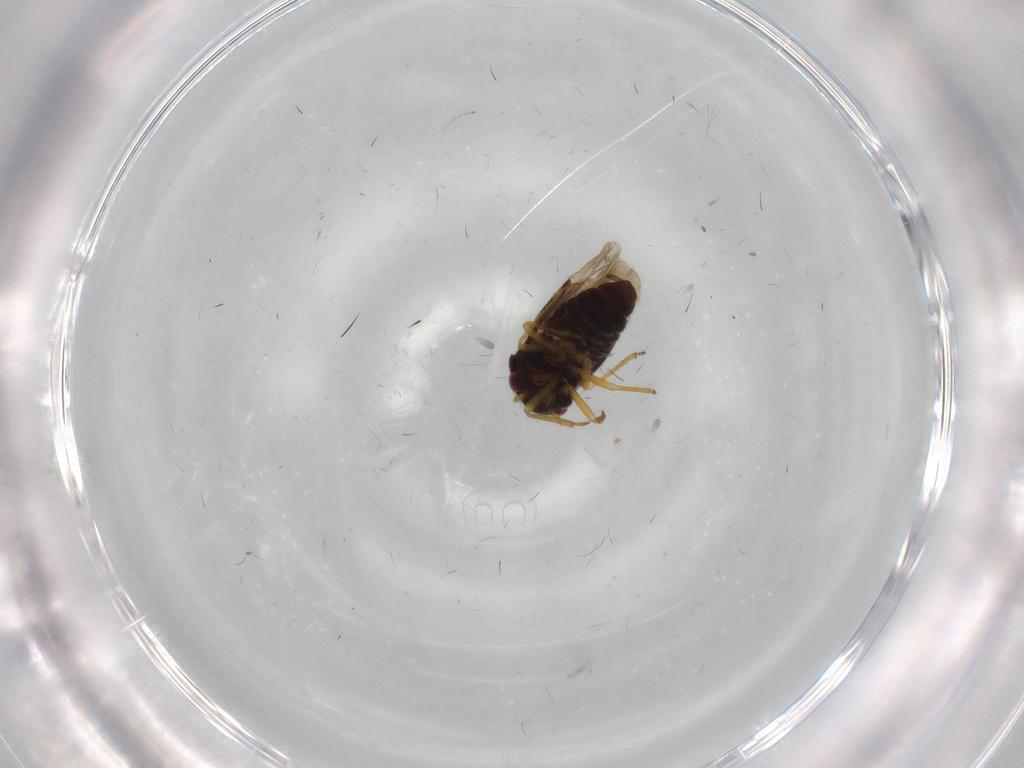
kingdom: Animalia
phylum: Arthropoda
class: Insecta
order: Hemiptera
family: Schizopteridae
